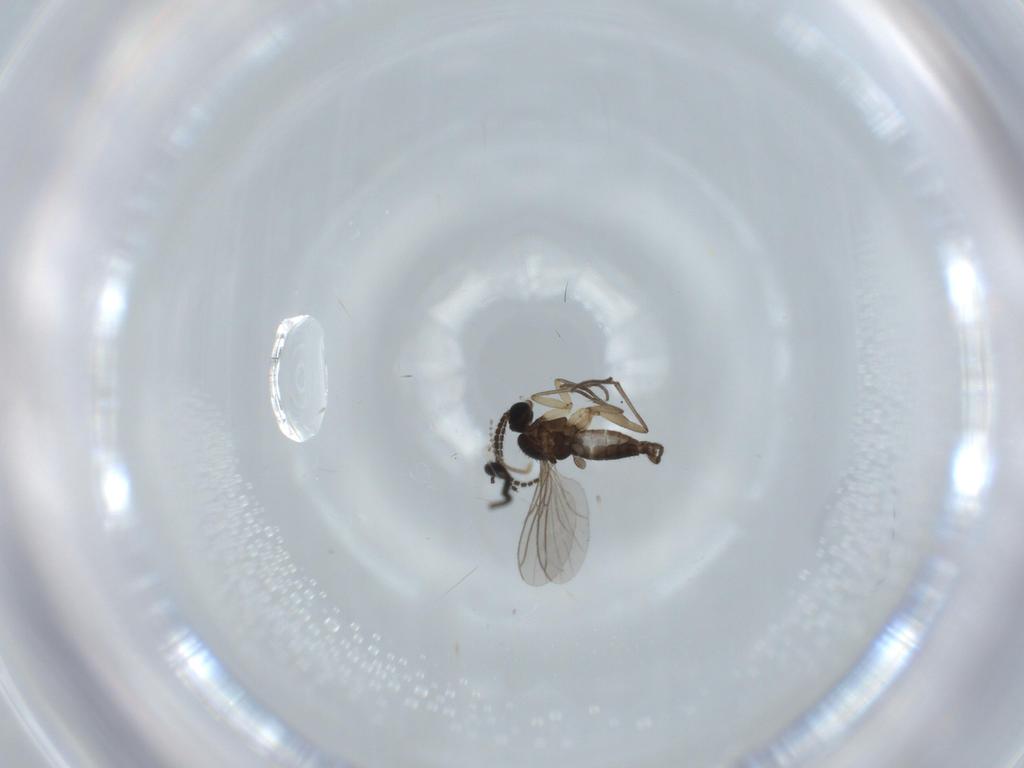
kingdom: Animalia
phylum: Arthropoda
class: Insecta
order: Diptera
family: Sciaridae
